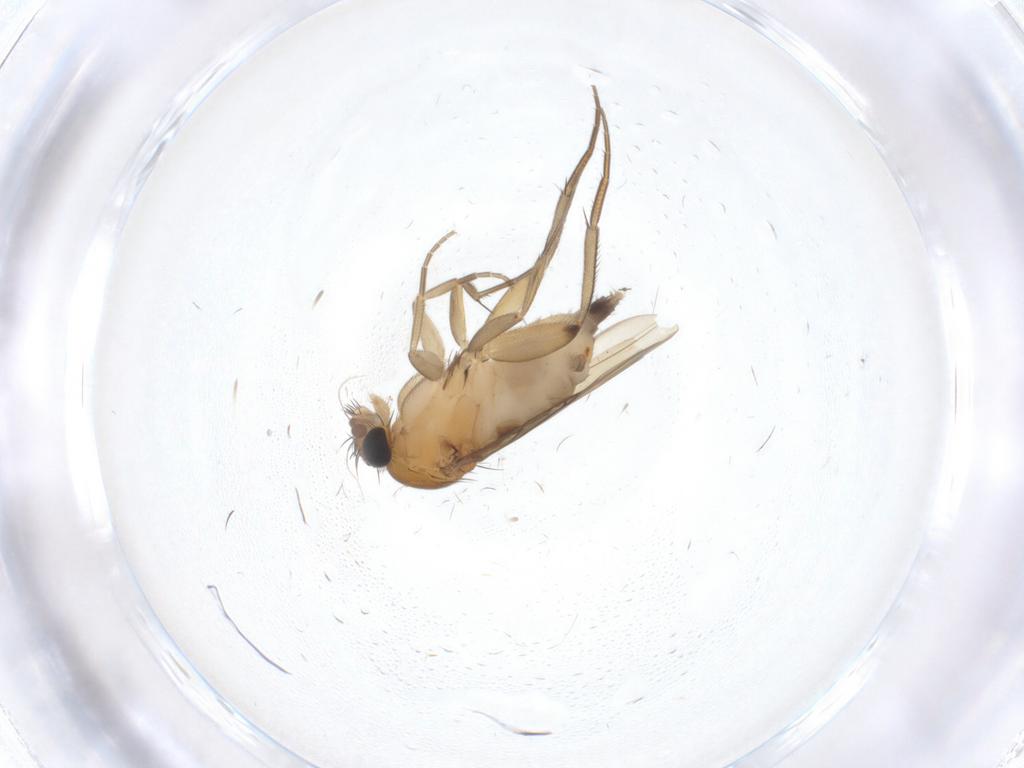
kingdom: Animalia
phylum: Arthropoda
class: Insecta
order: Diptera
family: Phoridae
